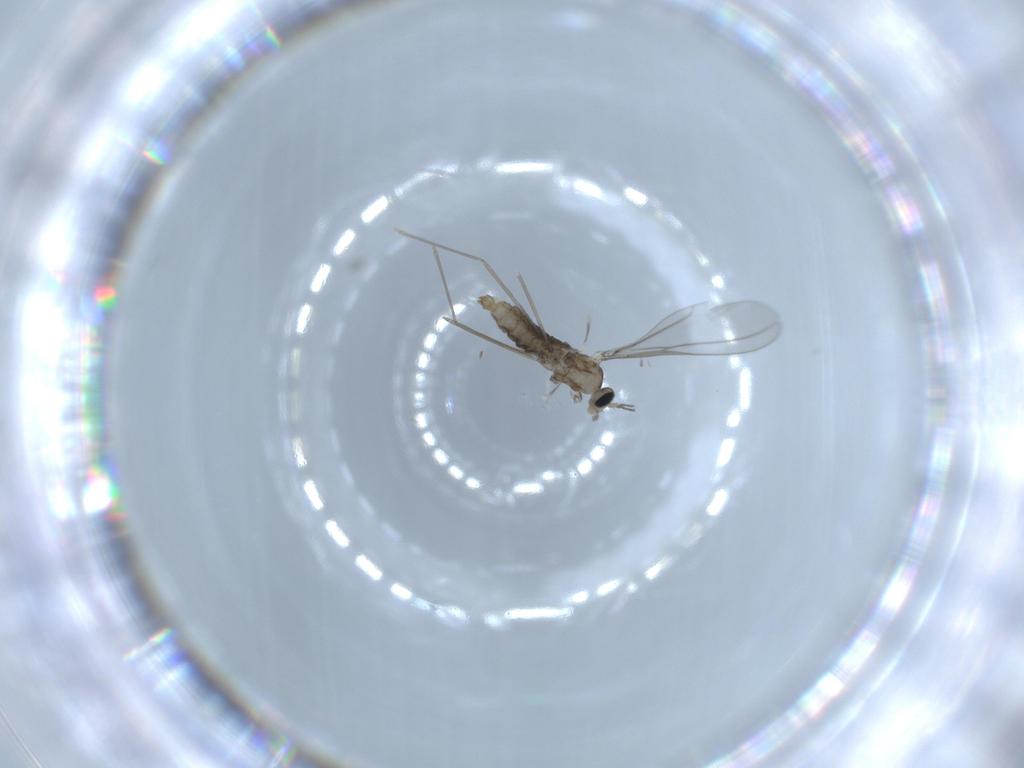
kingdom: Animalia
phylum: Arthropoda
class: Insecta
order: Diptera
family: Cecidomyiidae
